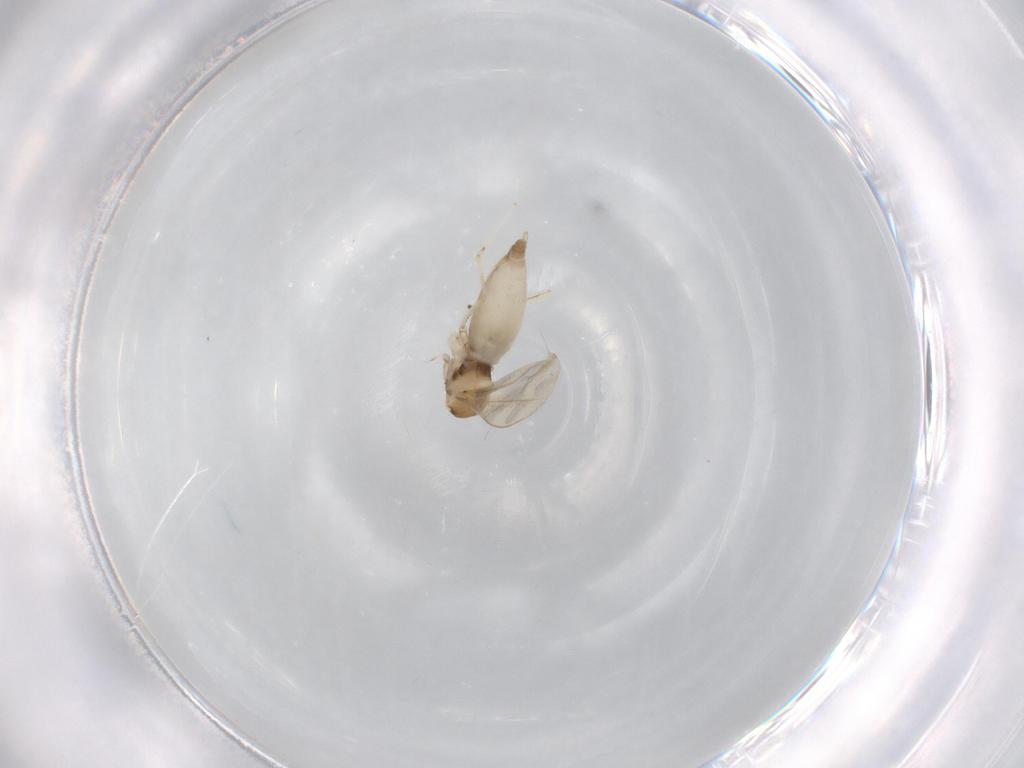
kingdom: Animalia
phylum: Arthropoda
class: Insecta
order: Diptera
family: Cecidomyiidae
